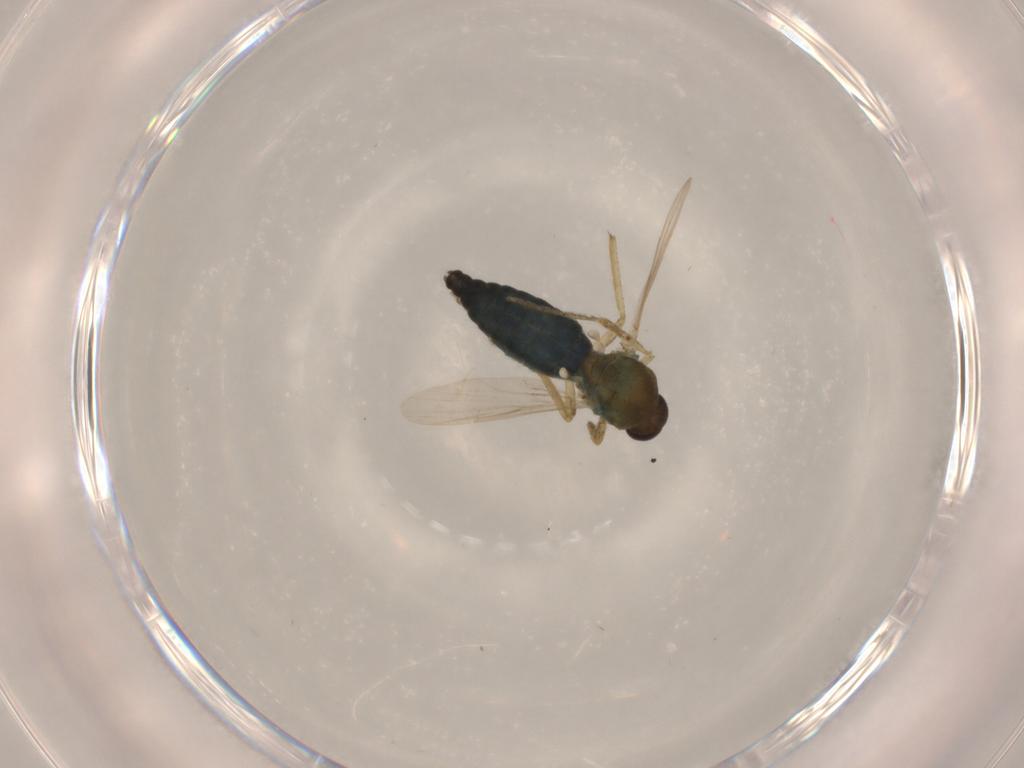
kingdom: Animalia
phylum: Arthropoda
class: Insecta
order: Diptera
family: Ceratopogonidae
